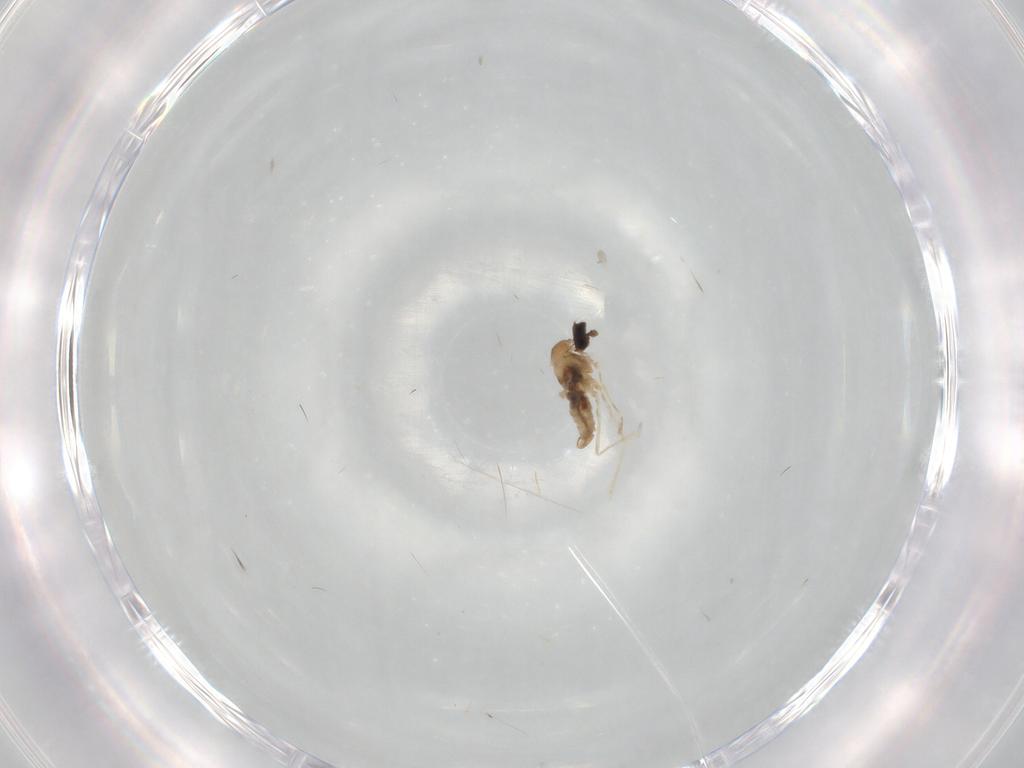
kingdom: Animalia
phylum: Arthropoda
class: Insecta
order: Diptera
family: Cecidomyiidae
